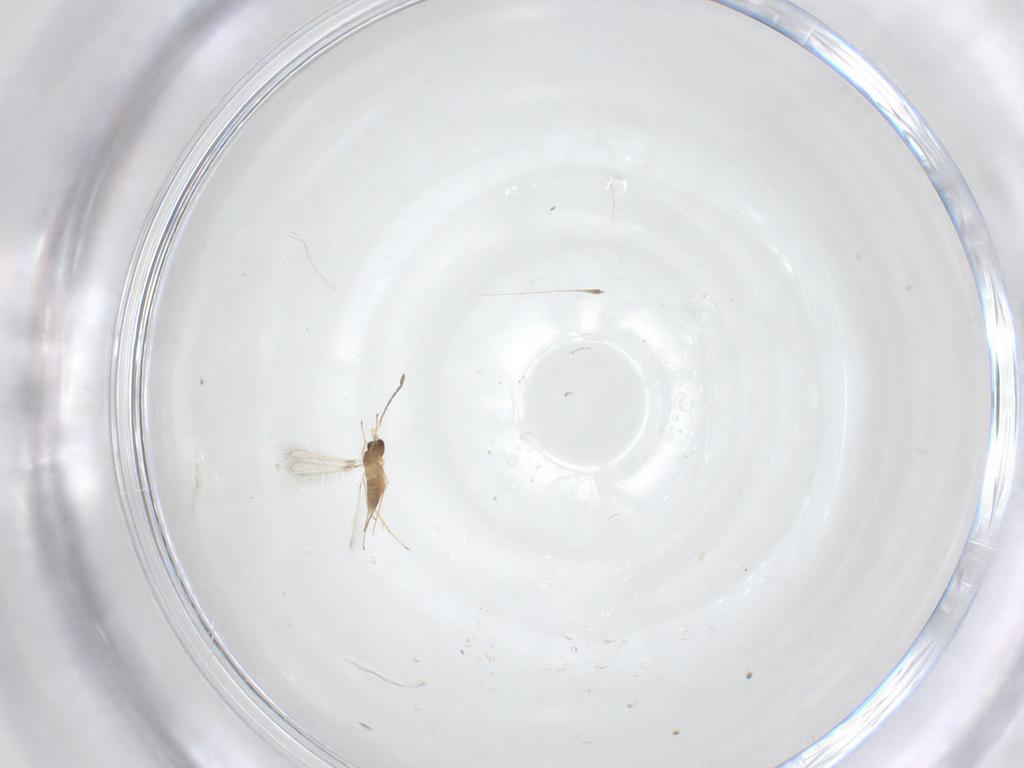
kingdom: Animalia
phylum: Arthropoda
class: Insecta
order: Hymenoptera
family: Mymaridae
